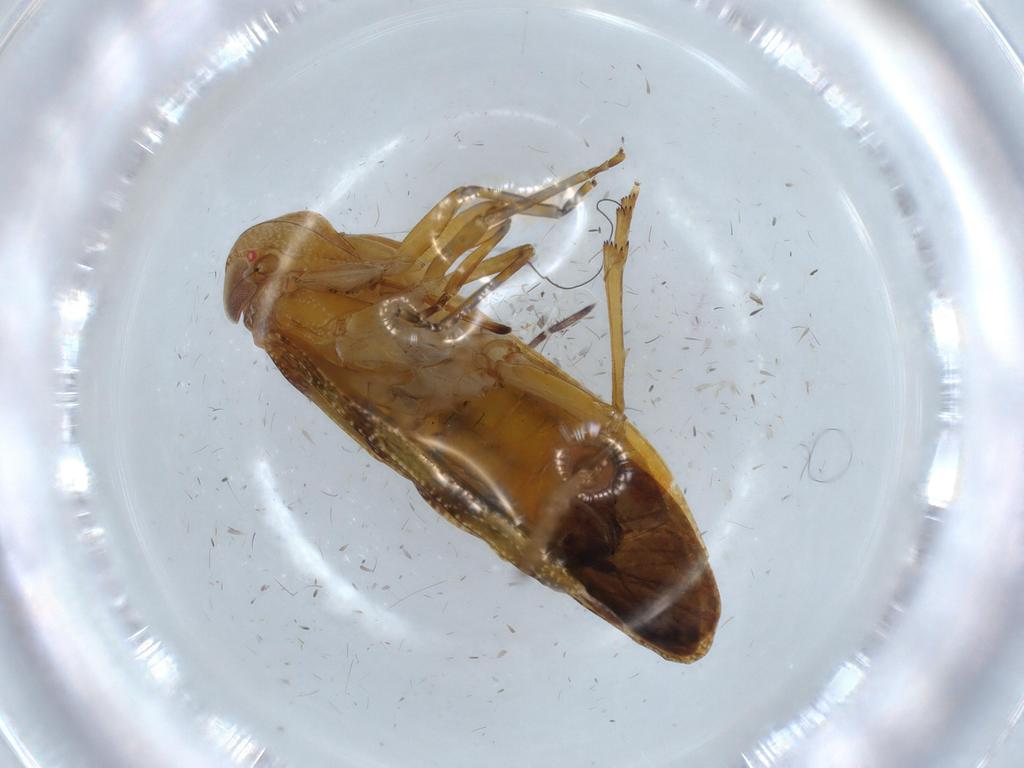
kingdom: Animalia
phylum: Arthropoda
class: Insecta
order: Hemiptera
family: Achilidae
